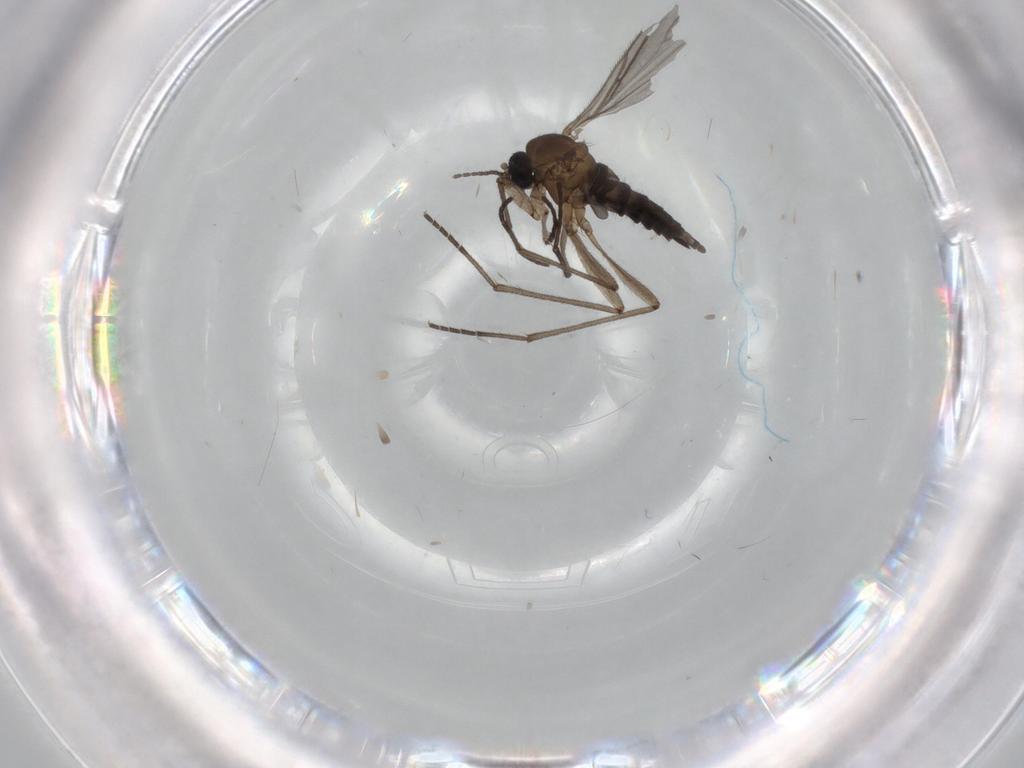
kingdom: Animalia
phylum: Arthropoda
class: Insecta
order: Diptera
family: Sciaridae
